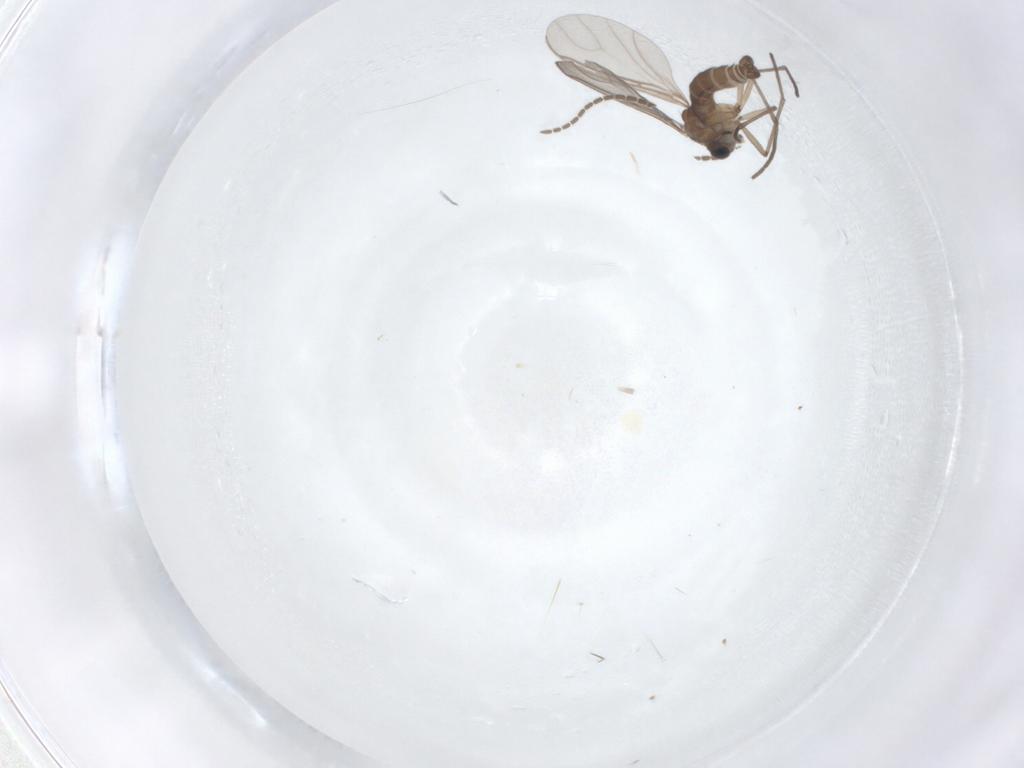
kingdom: Animalia
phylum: Arthropoda
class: Insecta
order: Diptera
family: Sciaridae
